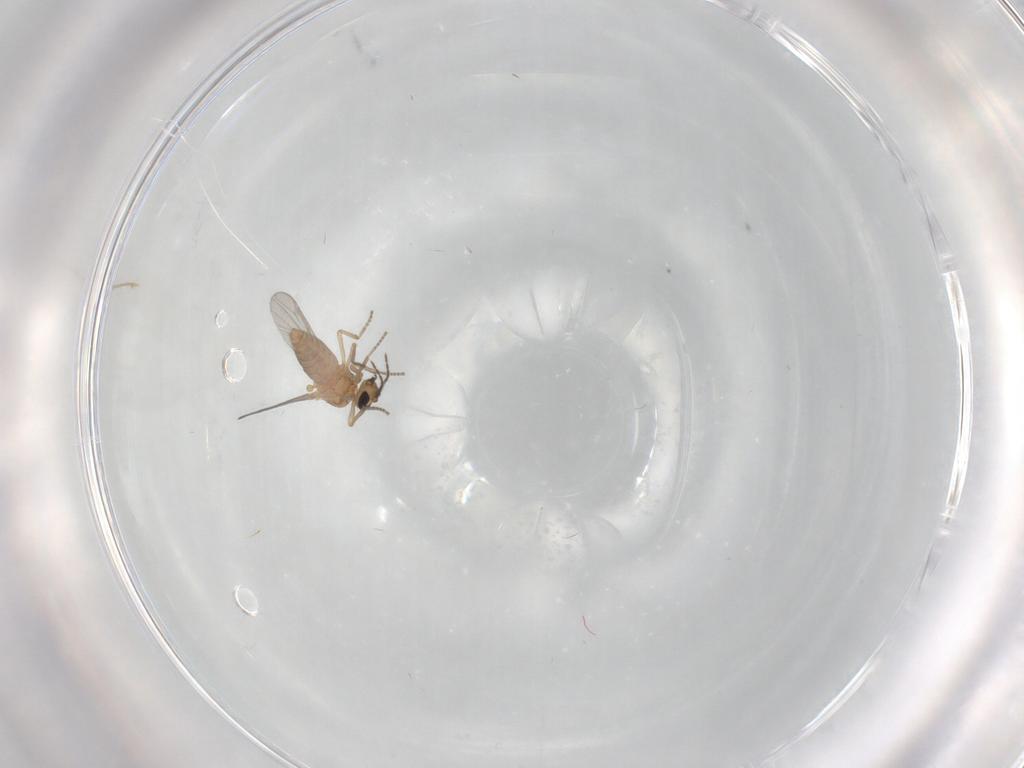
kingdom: Animalia
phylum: Arthropoda
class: Insecta
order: Diptera
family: Ceratopogonidae
